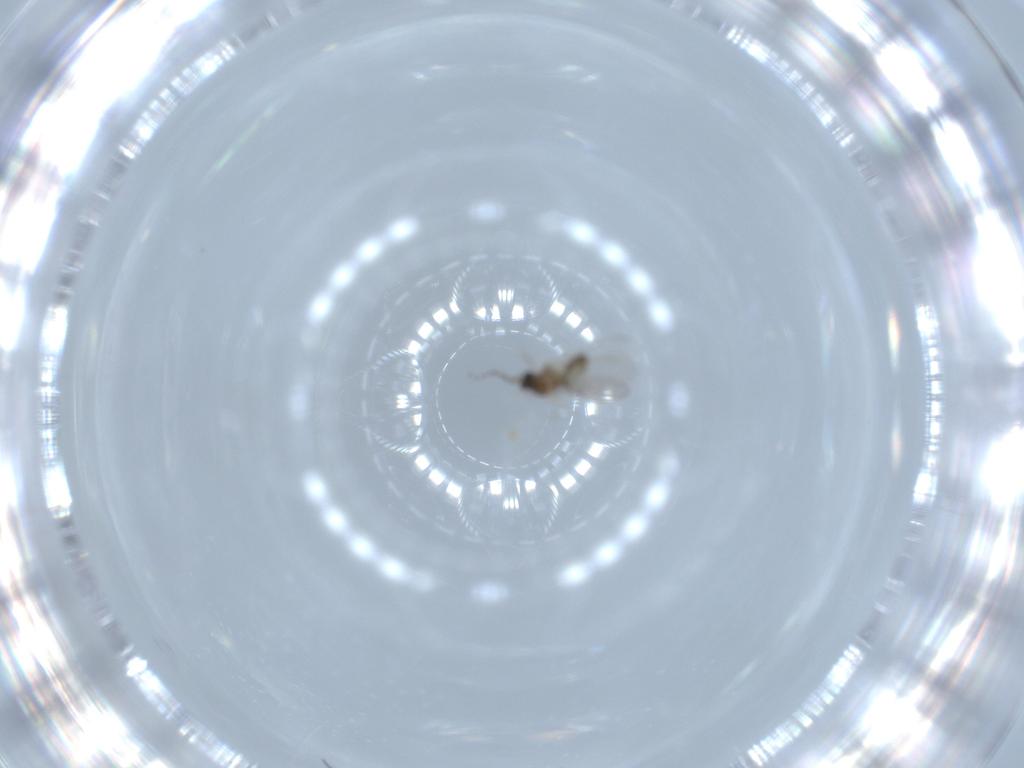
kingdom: Animalia
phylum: Arthropoda
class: Insecta
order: Diptera
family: Cecidomyiidae
